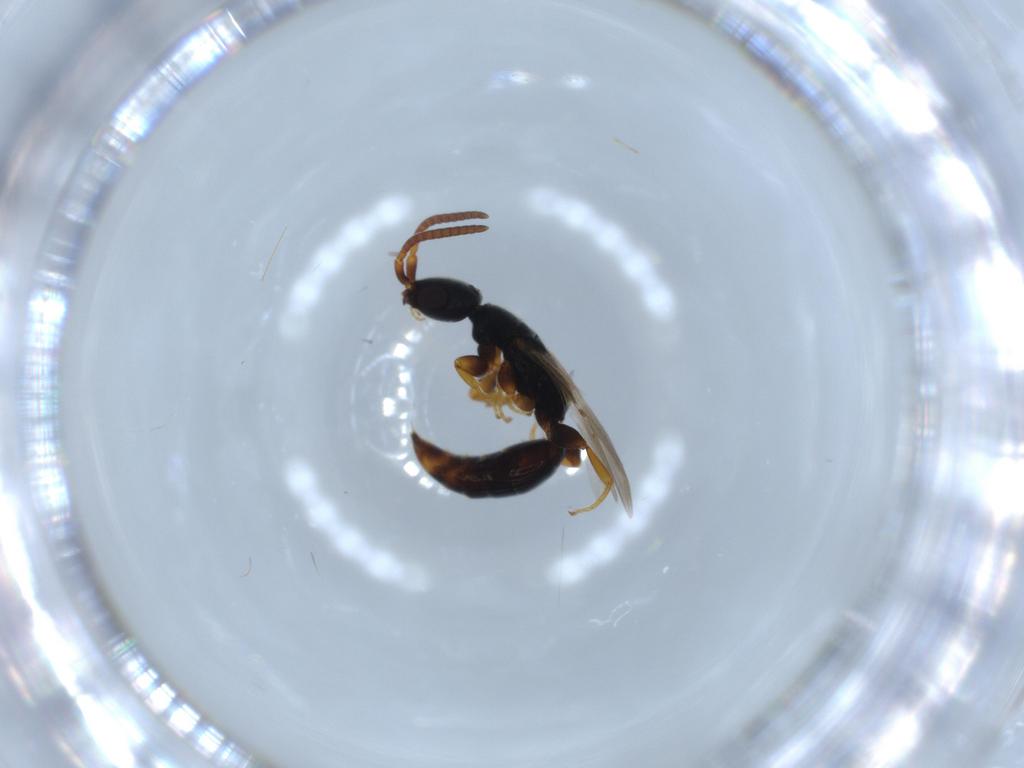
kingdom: Animalia
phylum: Arthropoda
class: Insecta
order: Hymenoptera
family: Bethylidae
